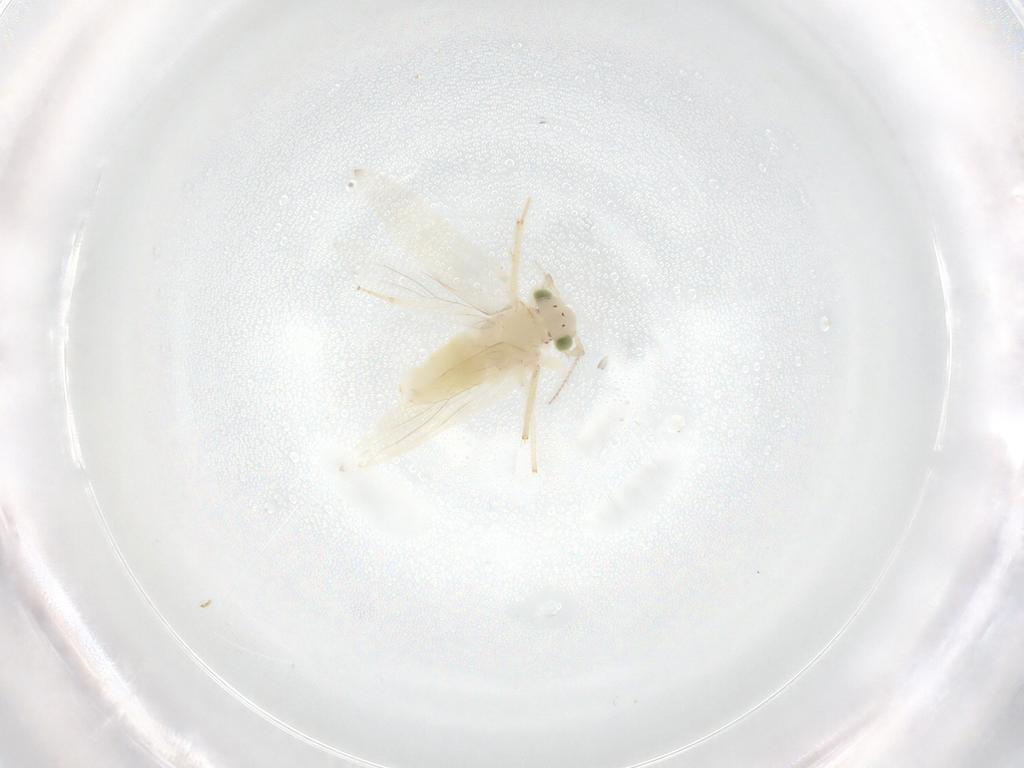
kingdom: Animalia
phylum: Arthropoda
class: Insecta
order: Psocodea
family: Lepidopsocidae
